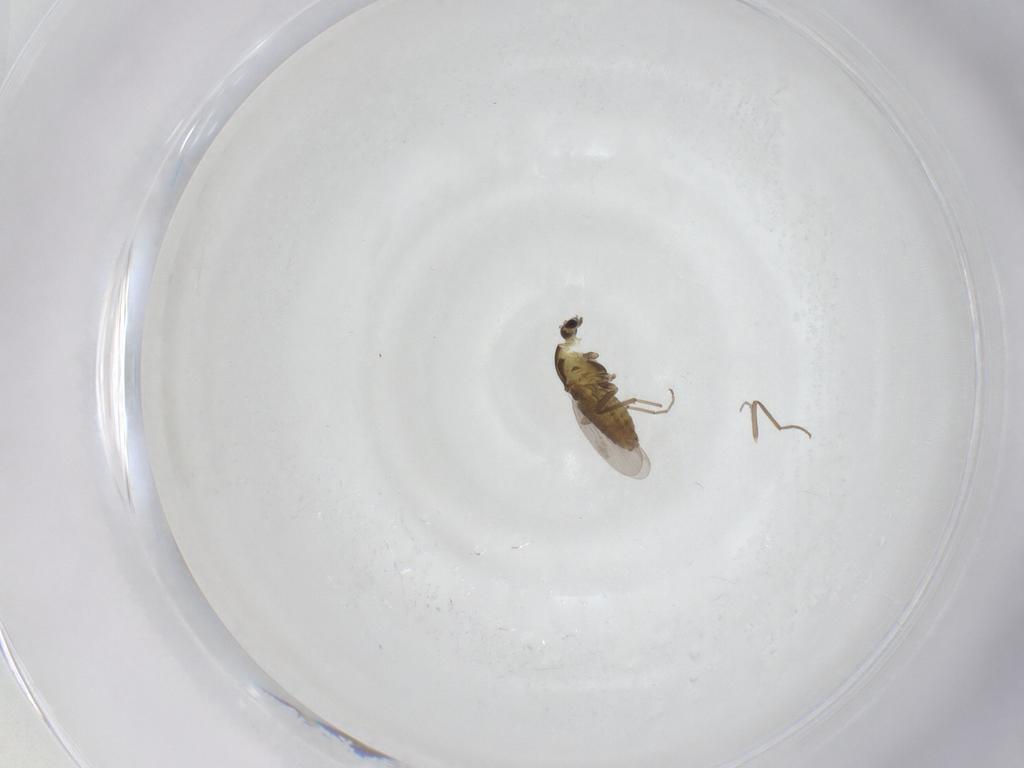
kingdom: Animalia
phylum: Arthropoda
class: Insecta
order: Diptera
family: Chironomidae
